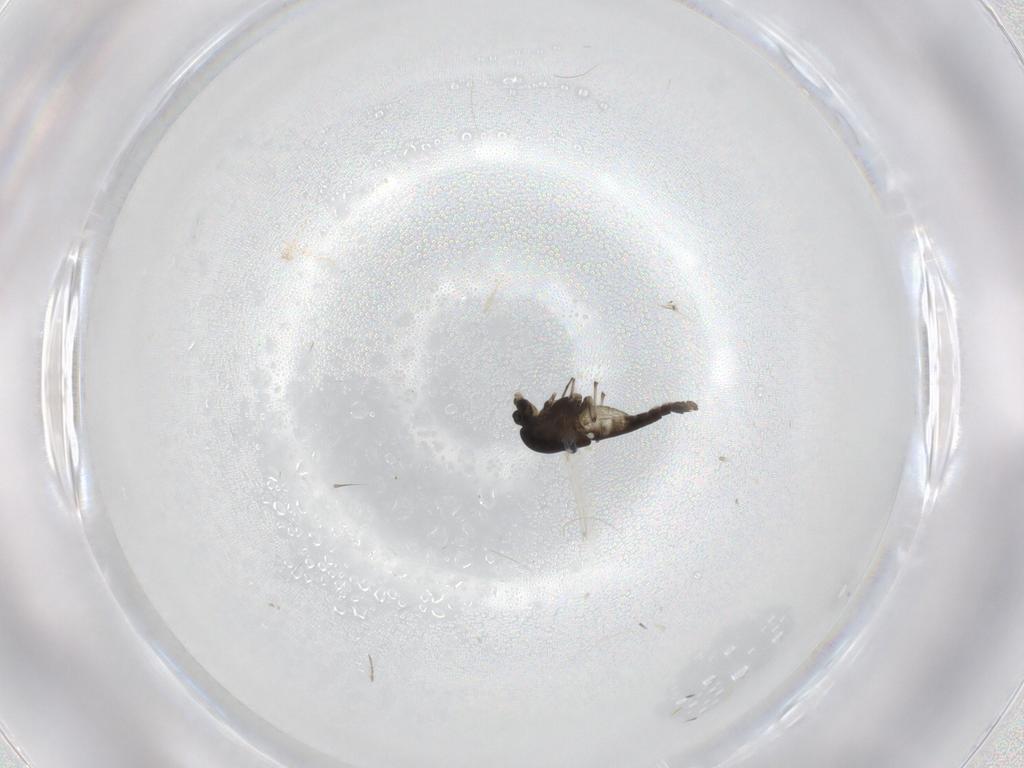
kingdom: Animalia
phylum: Arthropoda
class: Insecta
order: Diptera
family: Chironomidae
